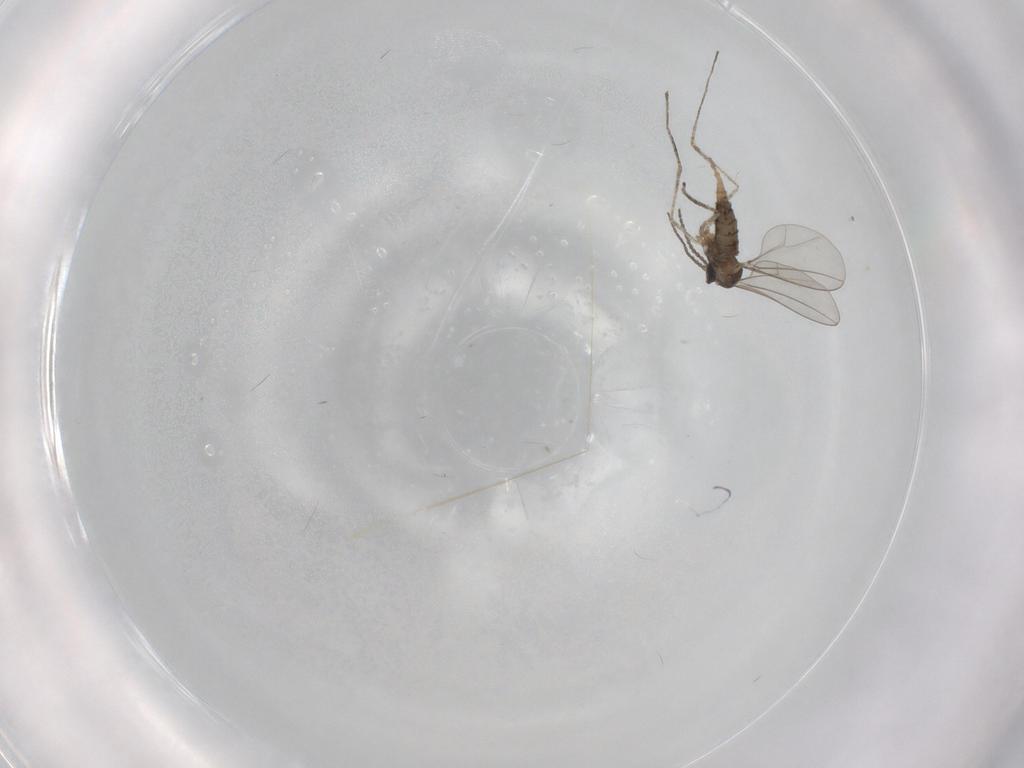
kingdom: Animalia
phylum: Arthropoda
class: Insecta
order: Diptera
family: Cecidomyiidae
